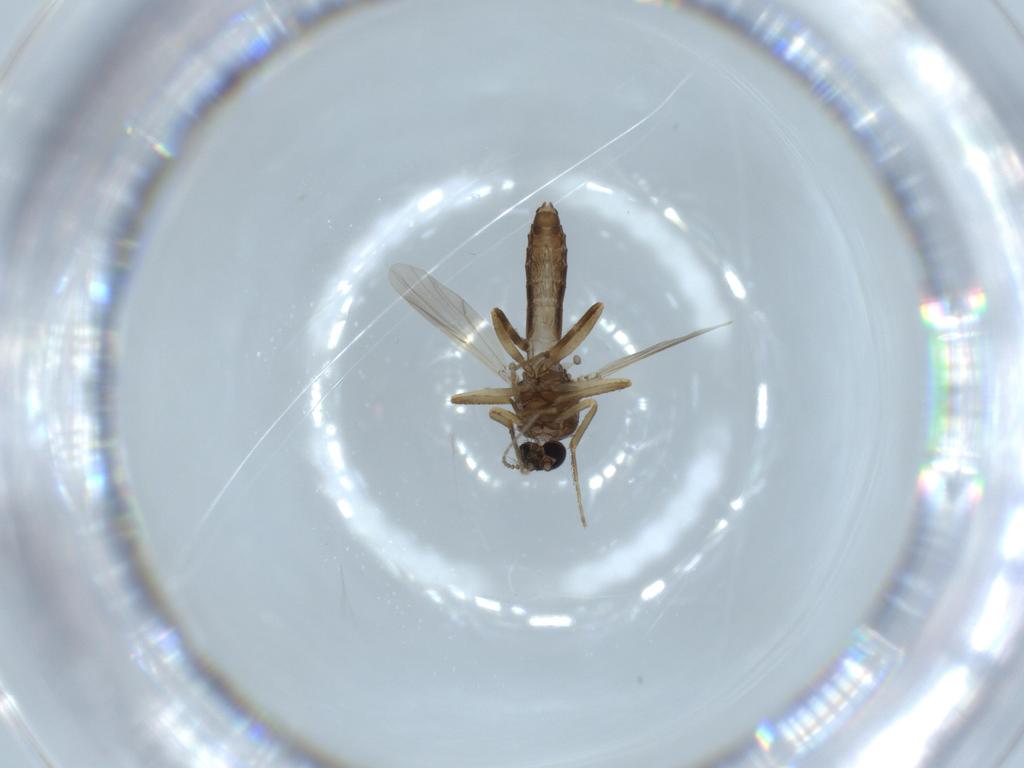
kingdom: Animalia
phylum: Arthropoda
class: Insecta
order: Diptera
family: Ceratopogonidae
